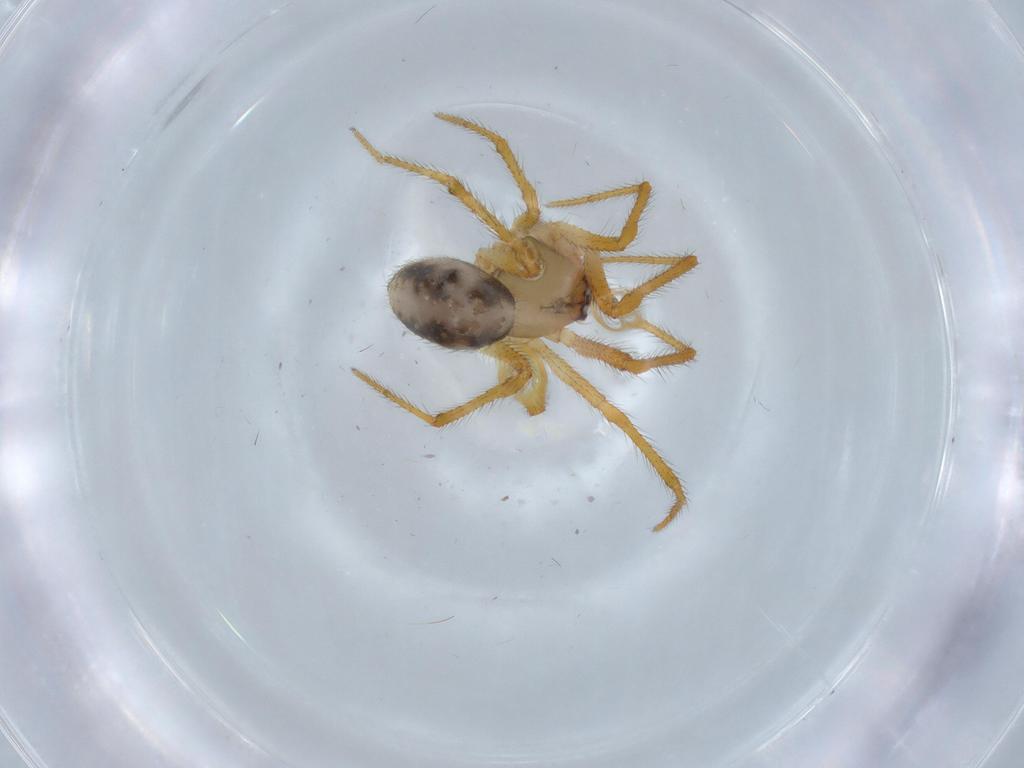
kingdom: Animalia
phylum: Arthropoda
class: Arachnida
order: Araneae
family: Theridiidae
